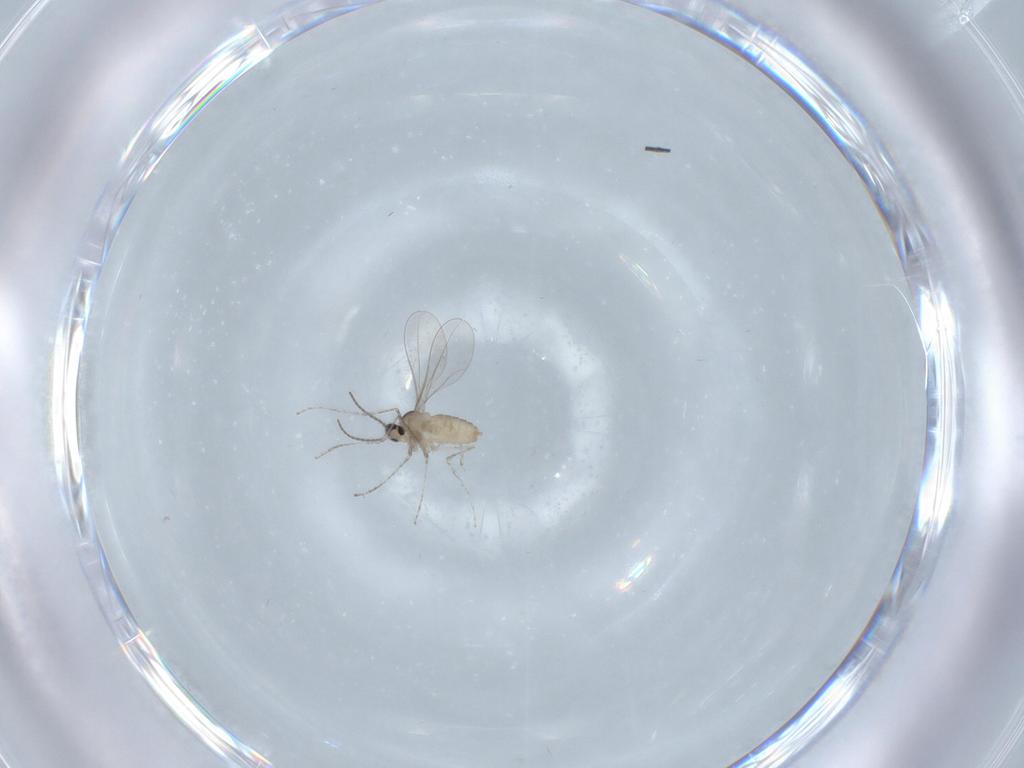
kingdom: Animalia
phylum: Arthropoda
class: Insecta
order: Diptera
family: Cecidomyiidae
